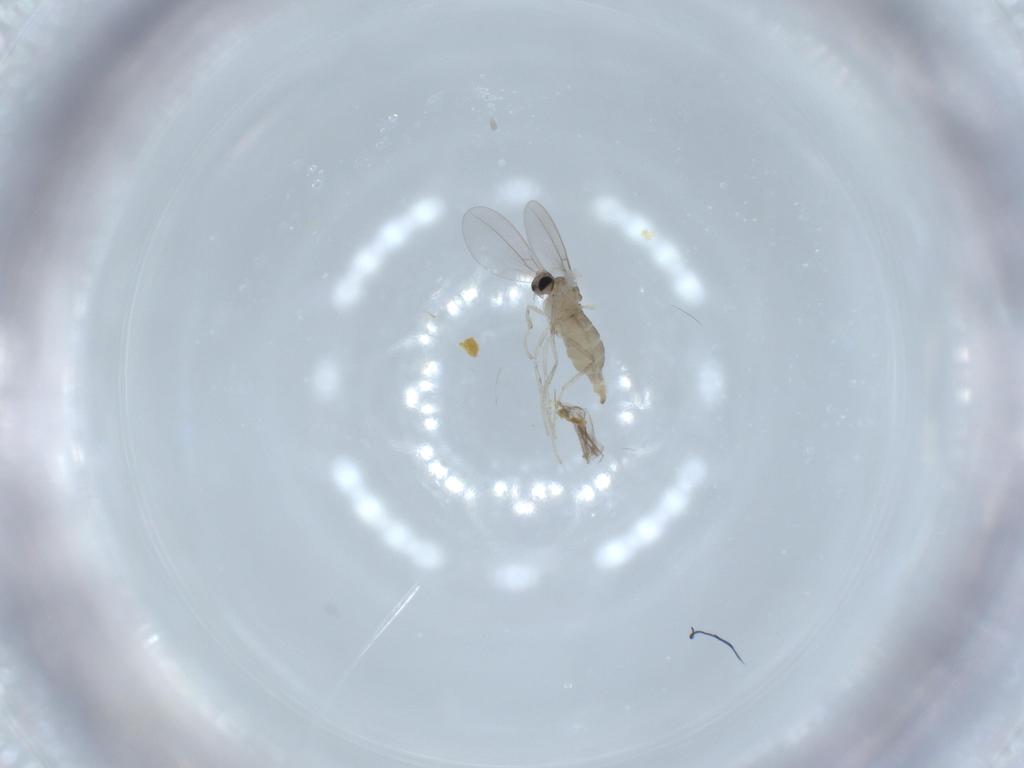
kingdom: Animalia
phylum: Arthropoda
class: Insecta
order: Diptera
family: Cecidomyiidae
